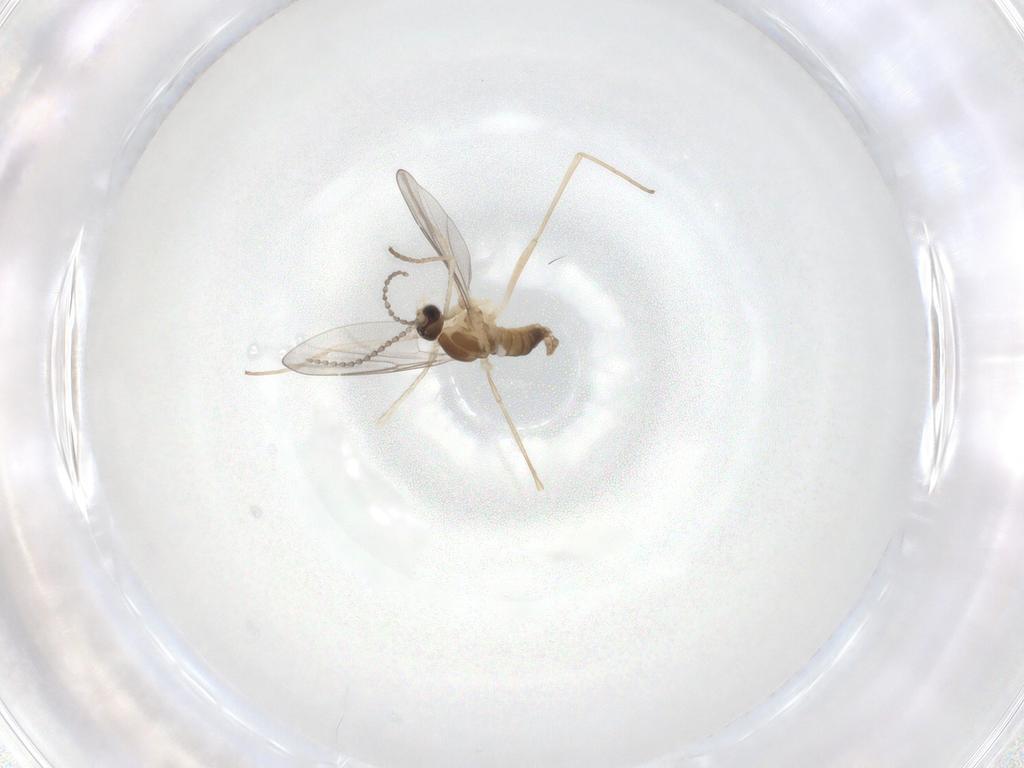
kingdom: Animalia
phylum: Arthropoda
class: Insecta
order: Diptera
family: Cecidomyiidae
